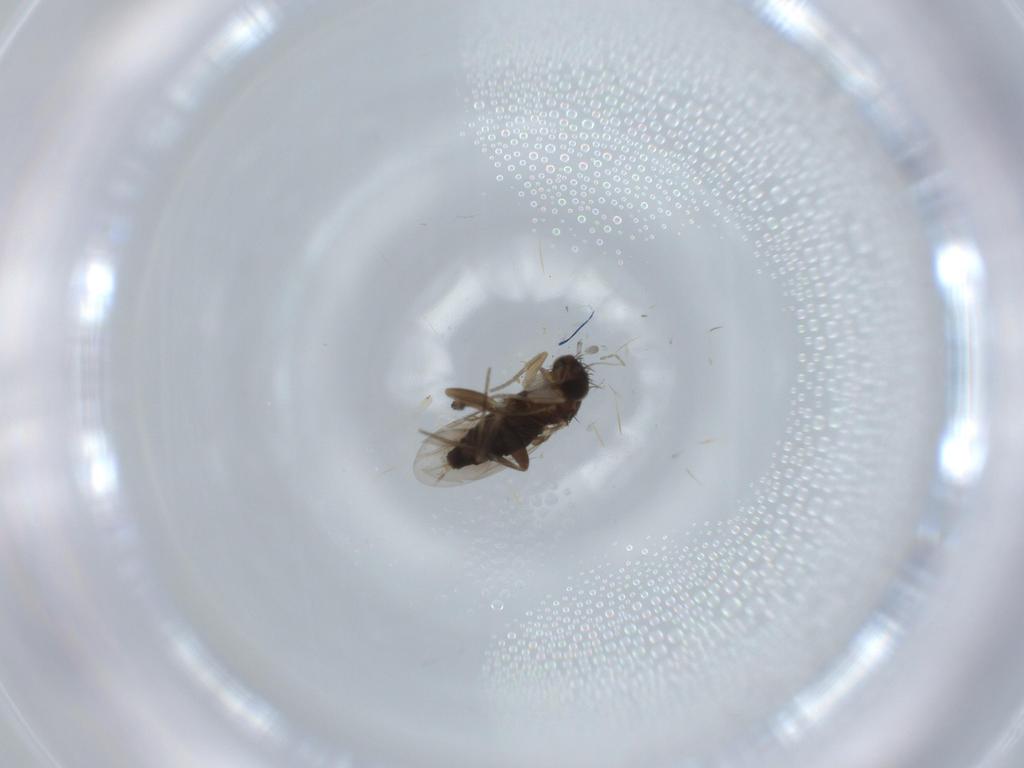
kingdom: Animalia
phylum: Arthropoda
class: Insecta
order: Diptera
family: Phoridae
